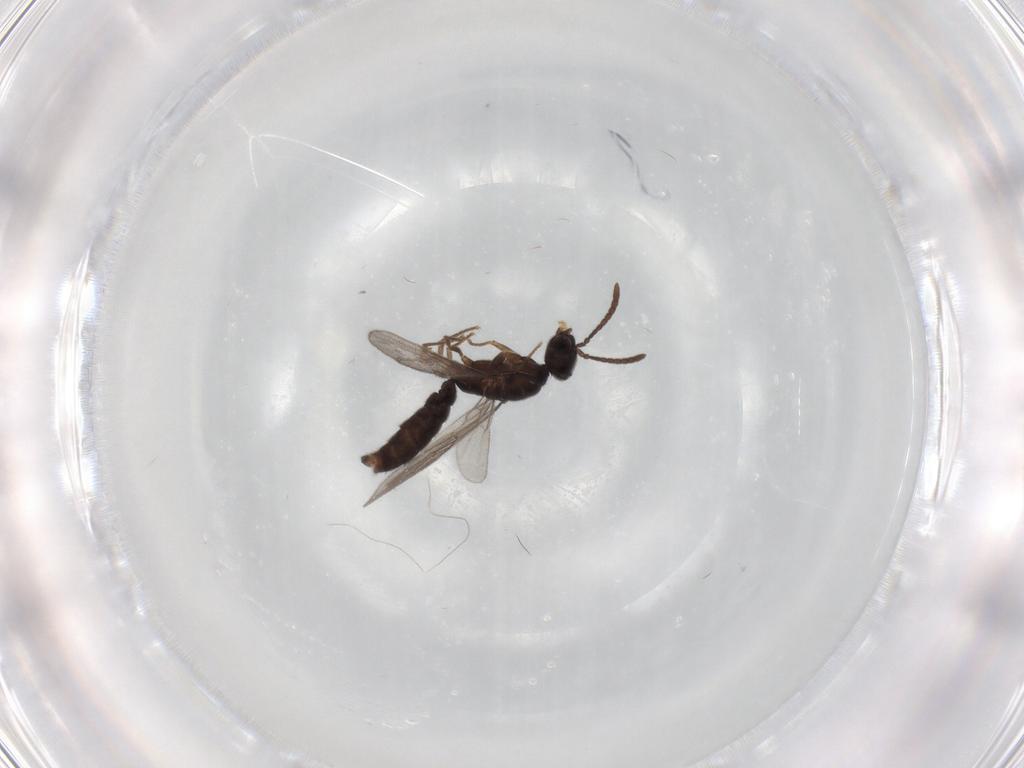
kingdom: Animalia
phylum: Arthropoda
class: Insecta
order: Hymenoptera
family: Formicidae
